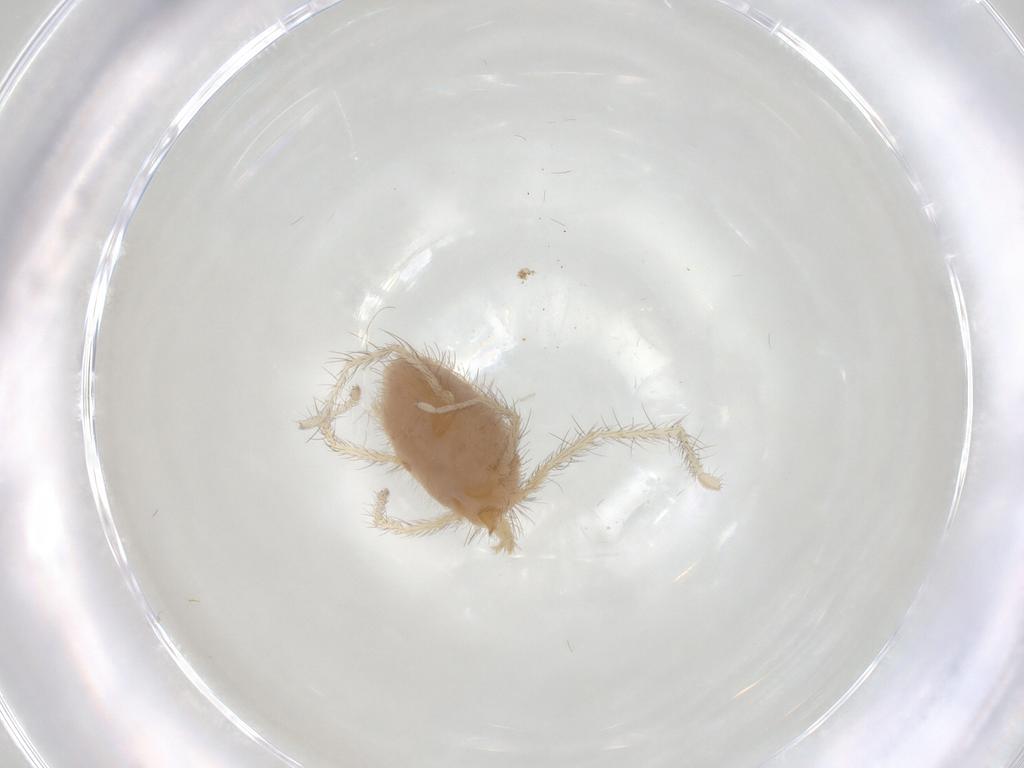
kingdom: Animalia
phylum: Arthropoda
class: Arachnida
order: Trombidiformes
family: Erythraeidae
